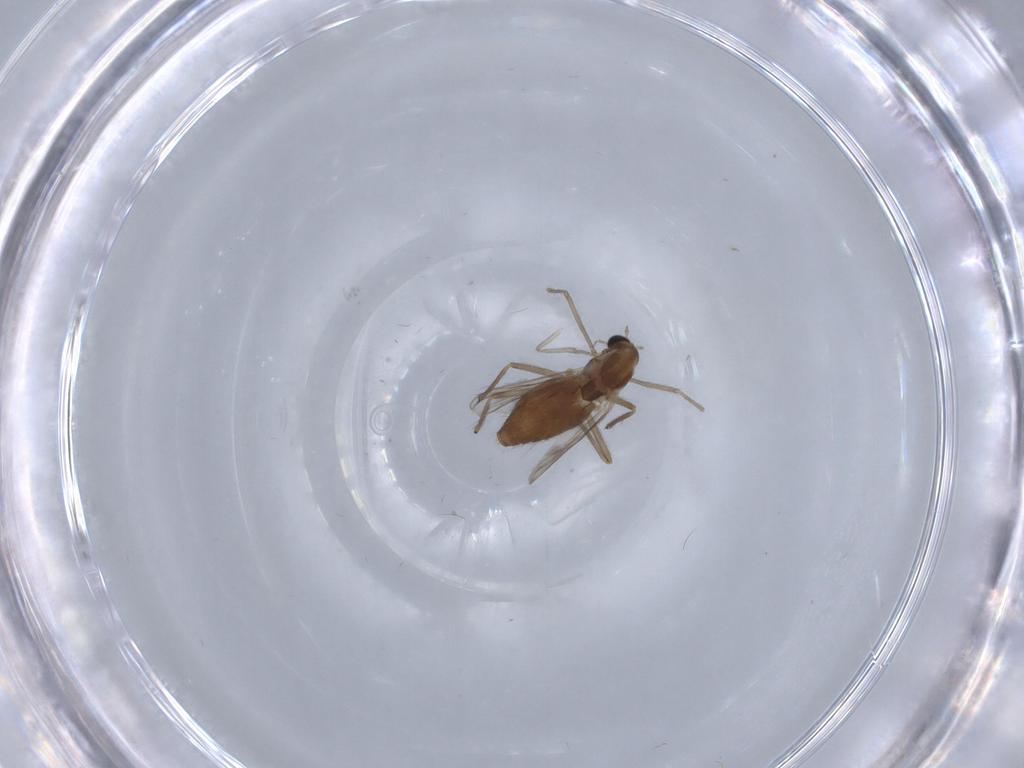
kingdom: Animalia
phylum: Arthropoda
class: Insecta
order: Diptera
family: Chironomidae
